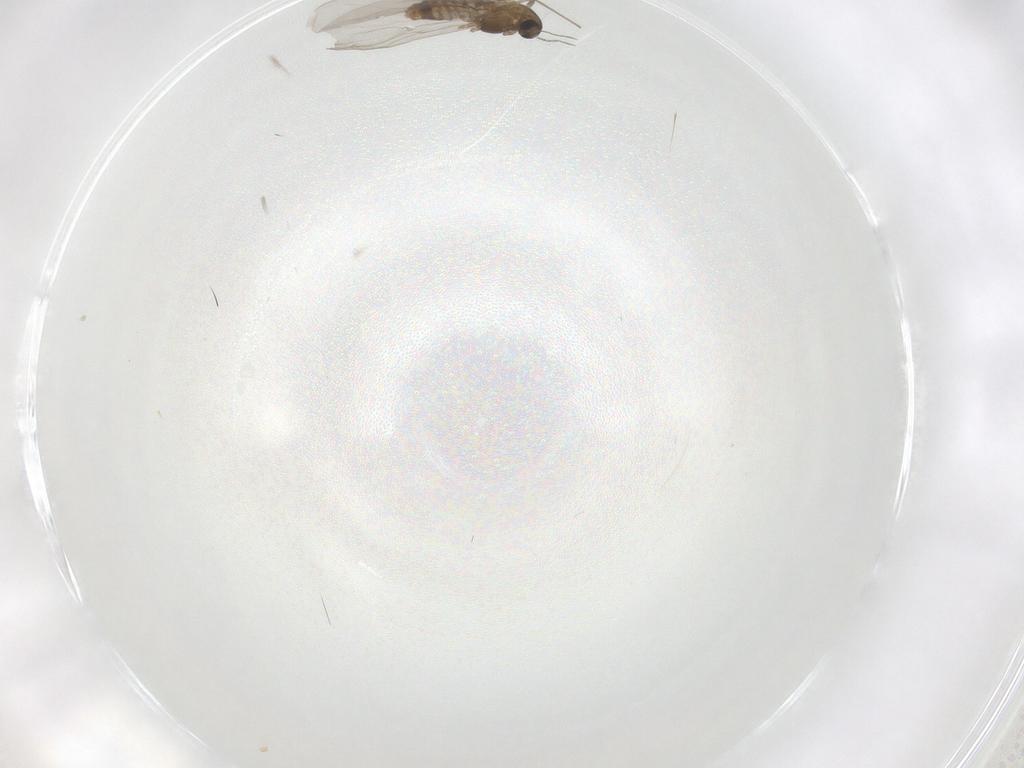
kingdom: Animalia
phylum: Arthropoda
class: Insecta
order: Diptera
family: Chironomidae
